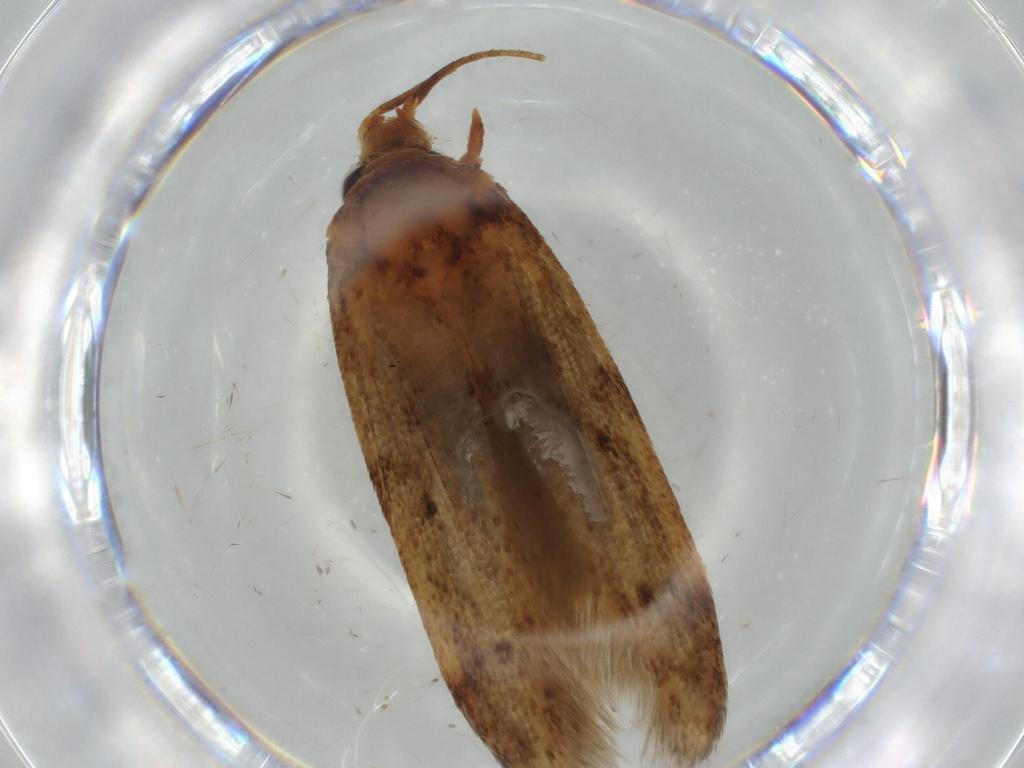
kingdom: Animalia
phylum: Arthropoda
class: Insecta
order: Lepidoptera
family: Blastobasidae
